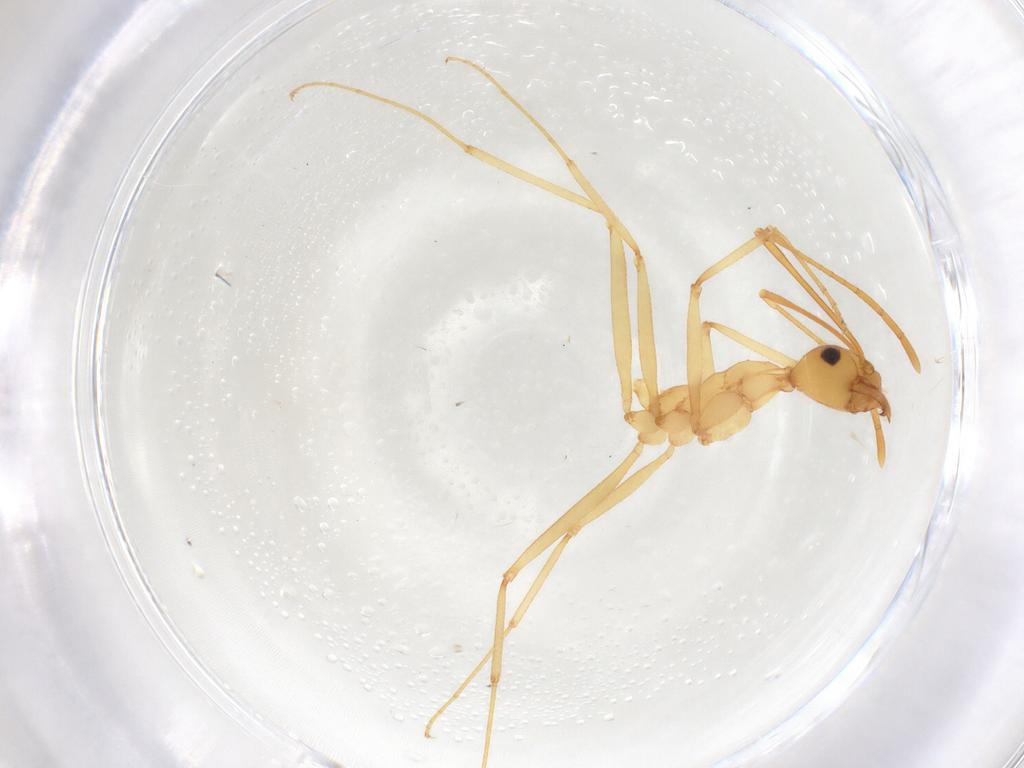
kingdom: Animalia
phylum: Arthropoda
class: Insecta
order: Hymenoptera
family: Formicidae
